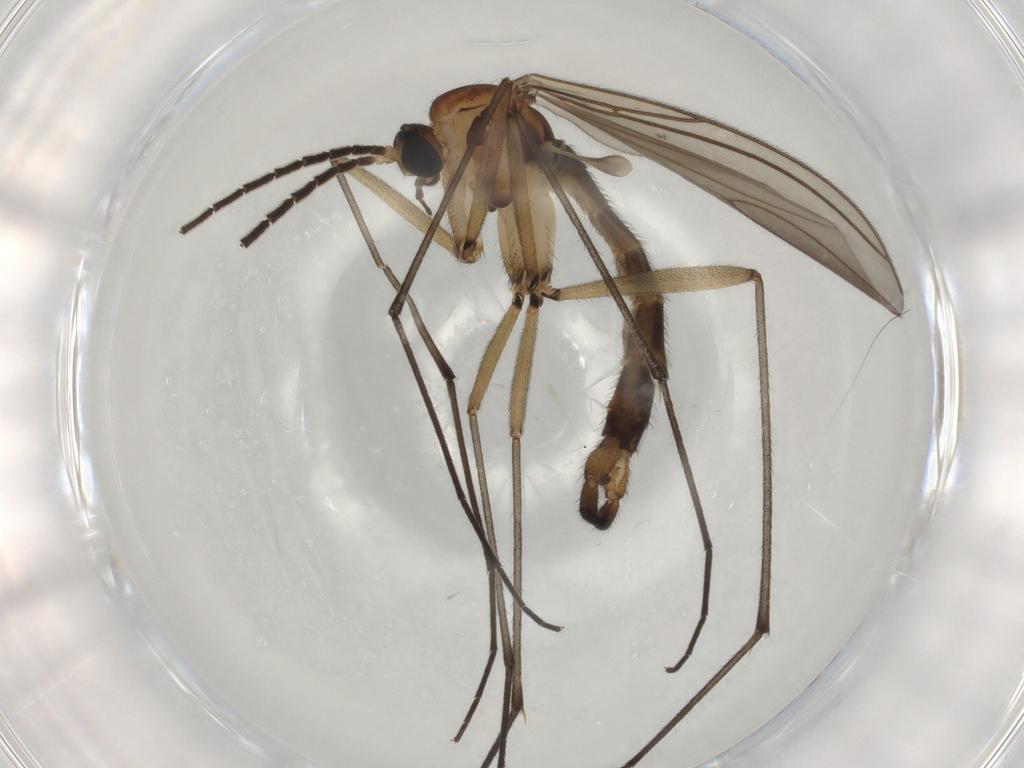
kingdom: Animalia
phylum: Arthropoda
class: Insecta
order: Diptera
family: Sciaridae
